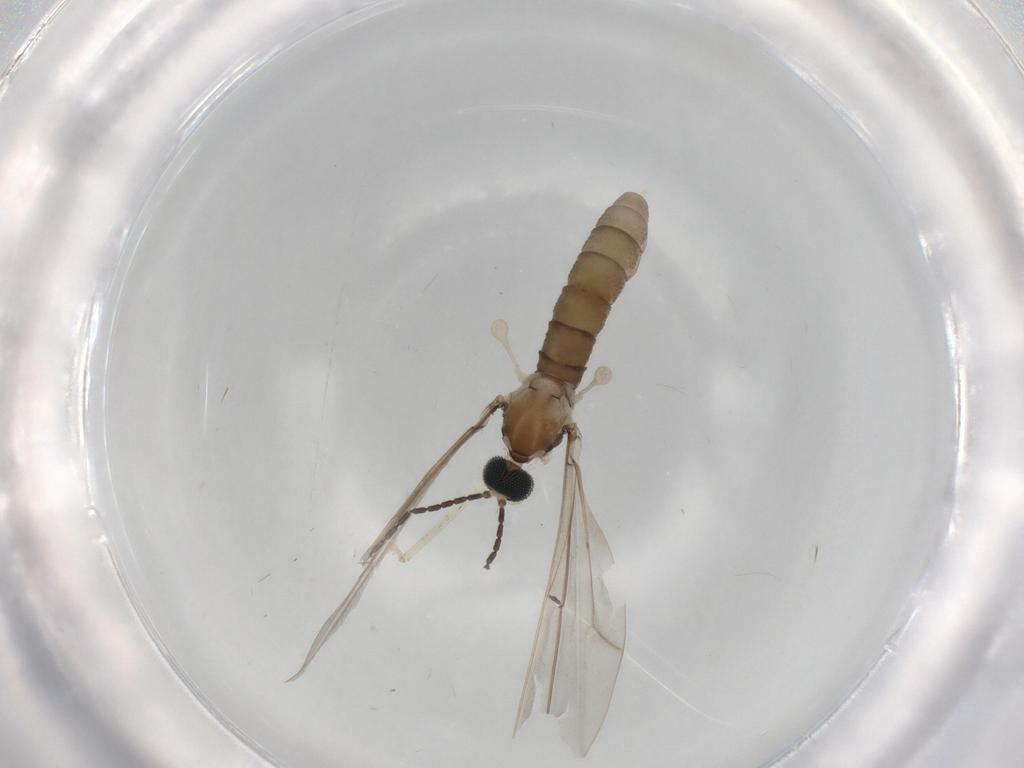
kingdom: Animalia
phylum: Arthropoda
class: Insecta
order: Diptera
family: Cecidomyiidae
